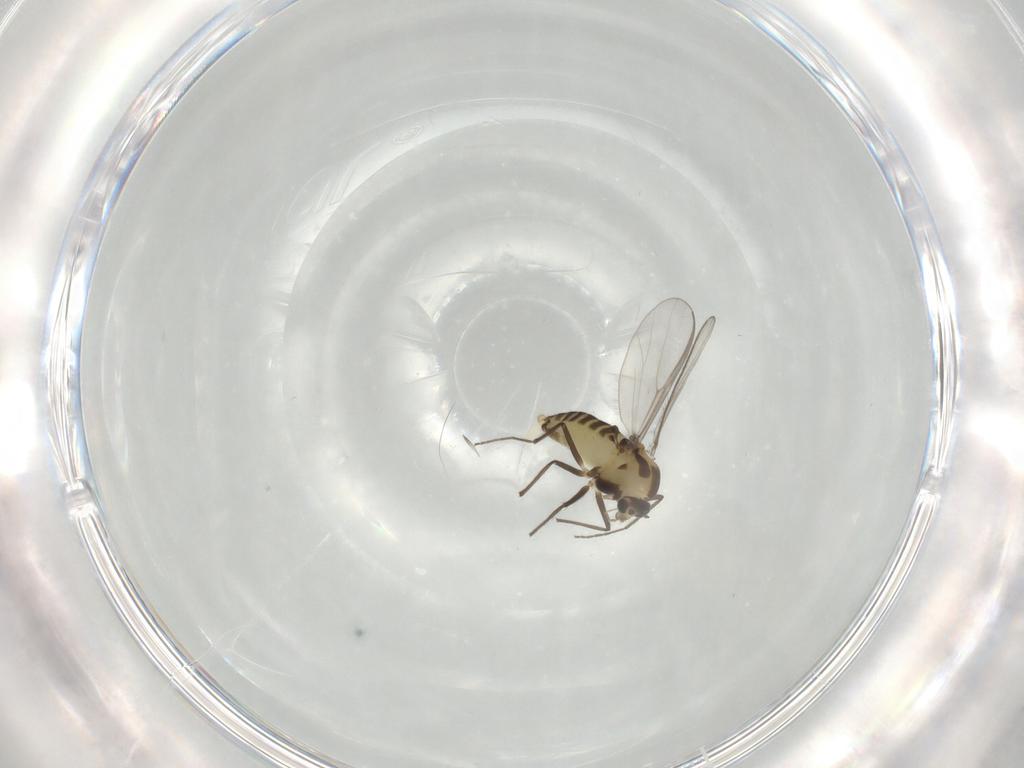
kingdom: Animalia
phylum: Arthropoda
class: Insecta
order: Diptera
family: Chironomidae
